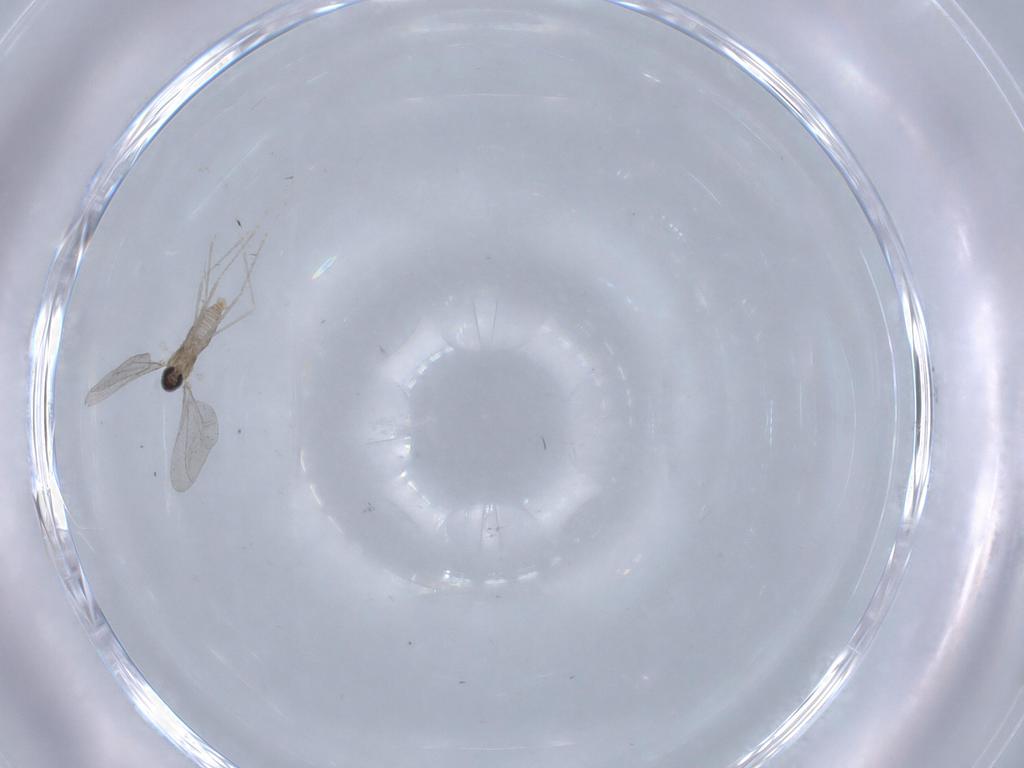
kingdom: Animalia
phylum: Arthropoda
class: Insecta
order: Diptera
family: Cecidomyiidae
